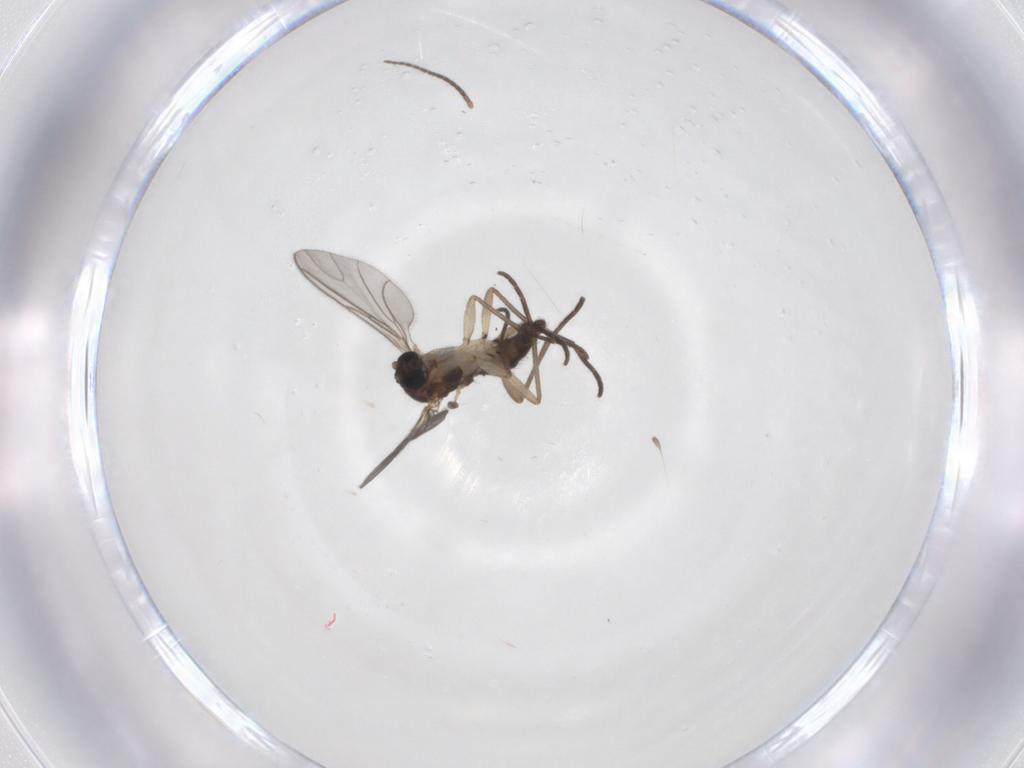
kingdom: Animalia
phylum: Arthropoda
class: Insecta
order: Diptera
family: Sciaridae
